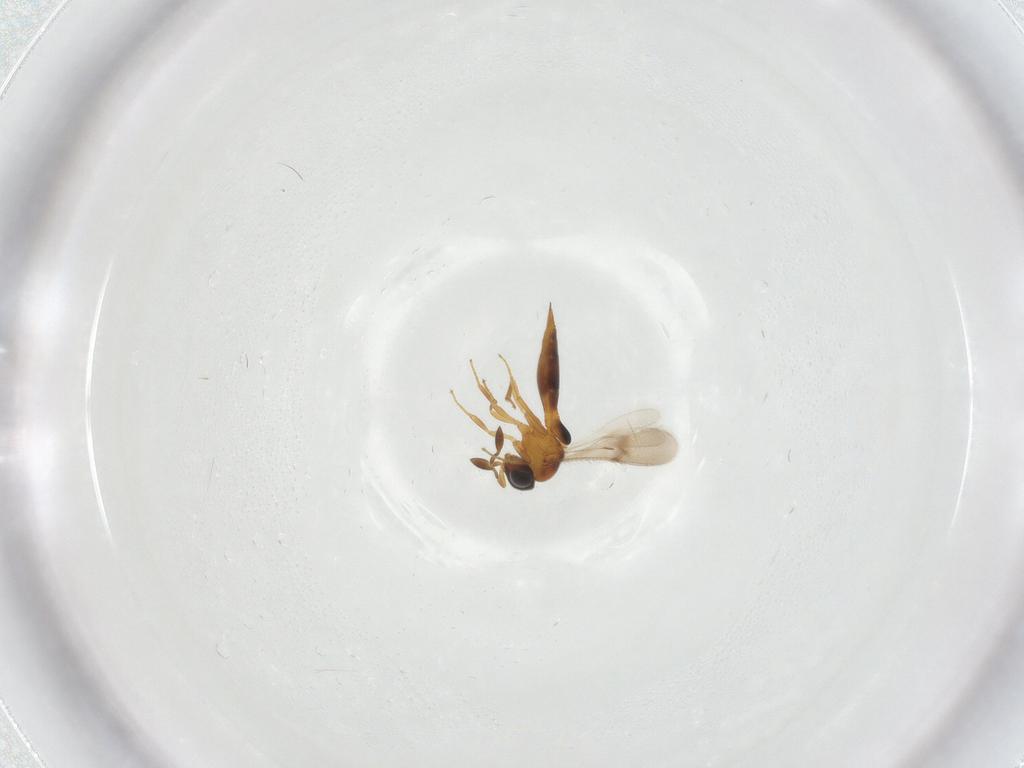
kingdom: Animalia
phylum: Arthropoda
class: Insecta
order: Hymenoptera
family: Scelionidae
